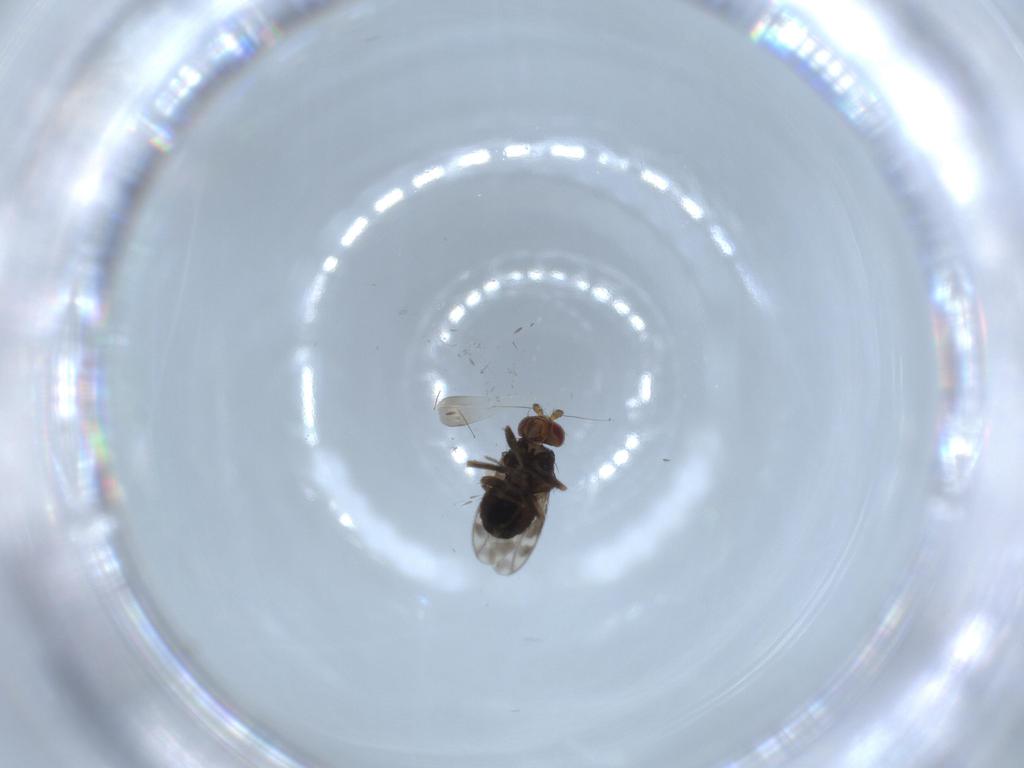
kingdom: Animalia
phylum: Arthropoda
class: Insecta
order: Diptera
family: Sphaeroceridae
